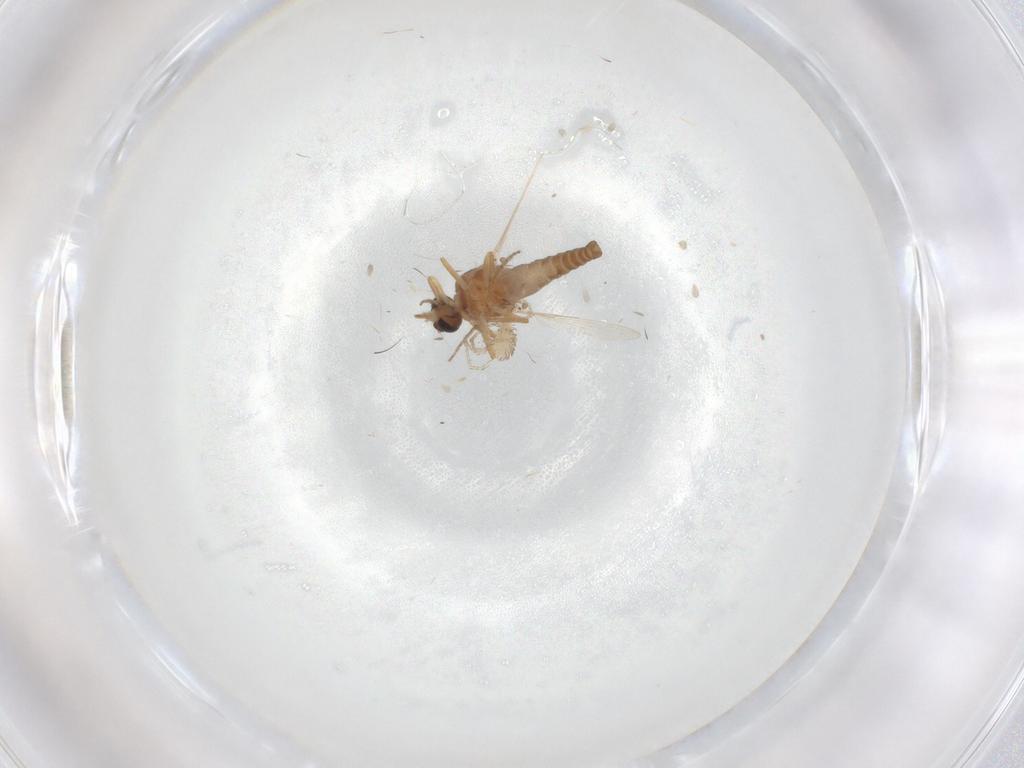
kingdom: Animalia
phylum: Arthropoda
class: Insecta
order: Diptera
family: Ceratopogonidae
